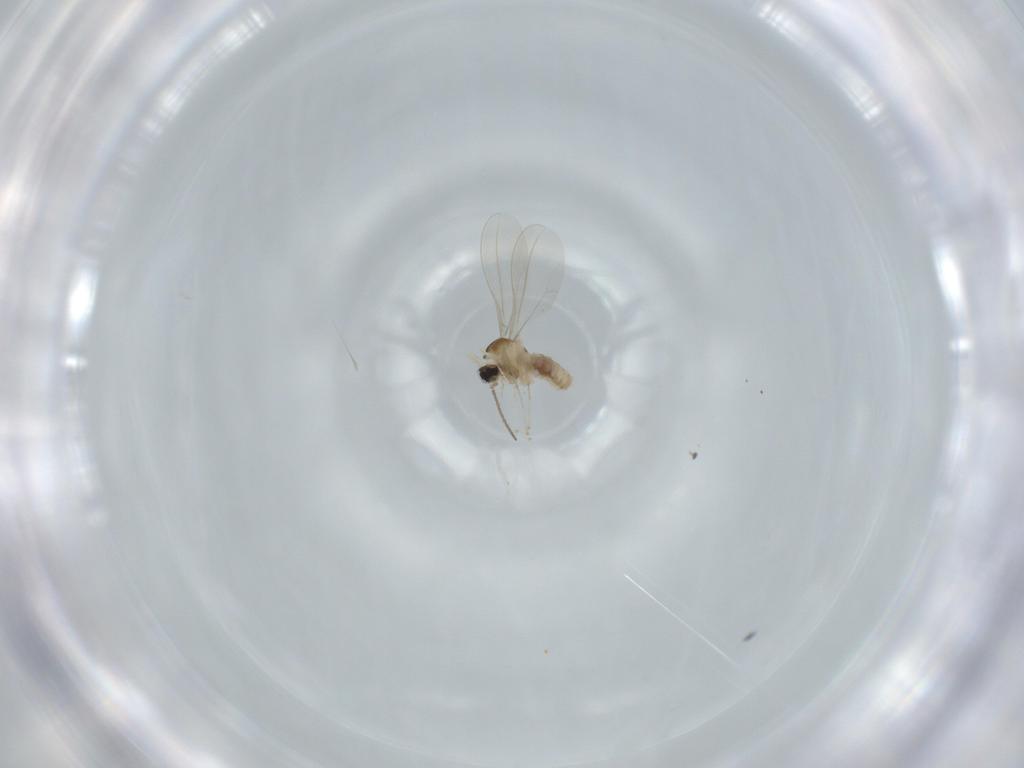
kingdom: Animalia
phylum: Arthropoda
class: Insecta
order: Diptera
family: Cecidomyiidae
